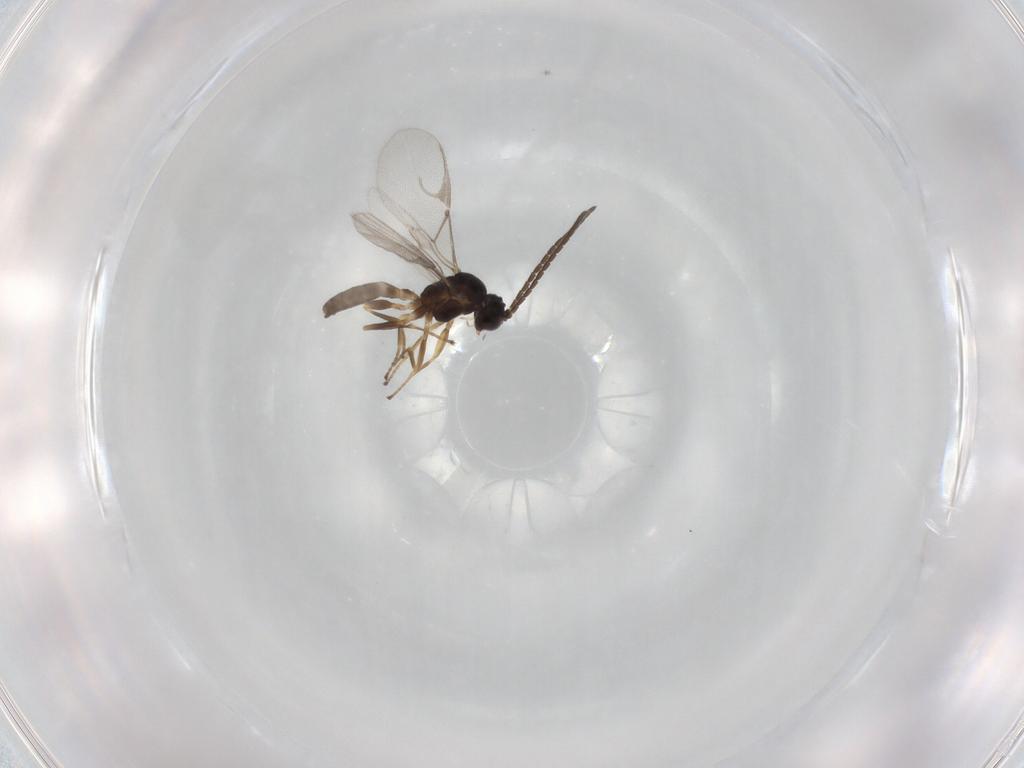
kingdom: Animalia
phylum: Arthropoda
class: Insecta
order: Hymenoptera
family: Braconidae
